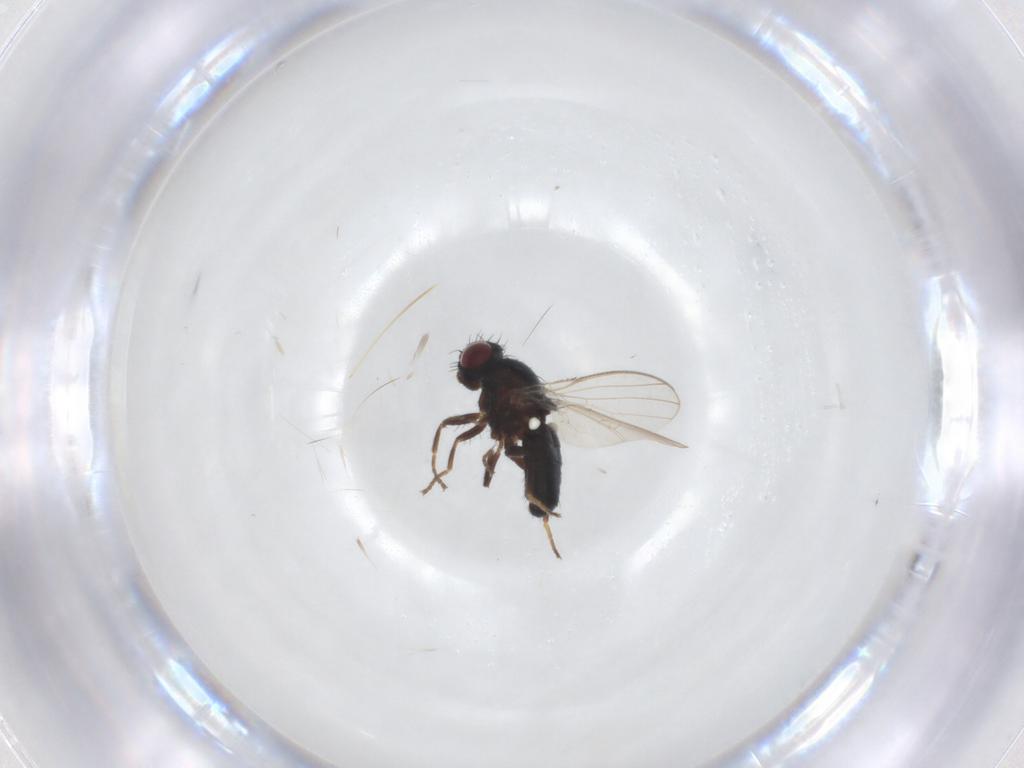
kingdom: Animalia
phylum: Arthropoda
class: Insecta
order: Diptera
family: Carnidae
